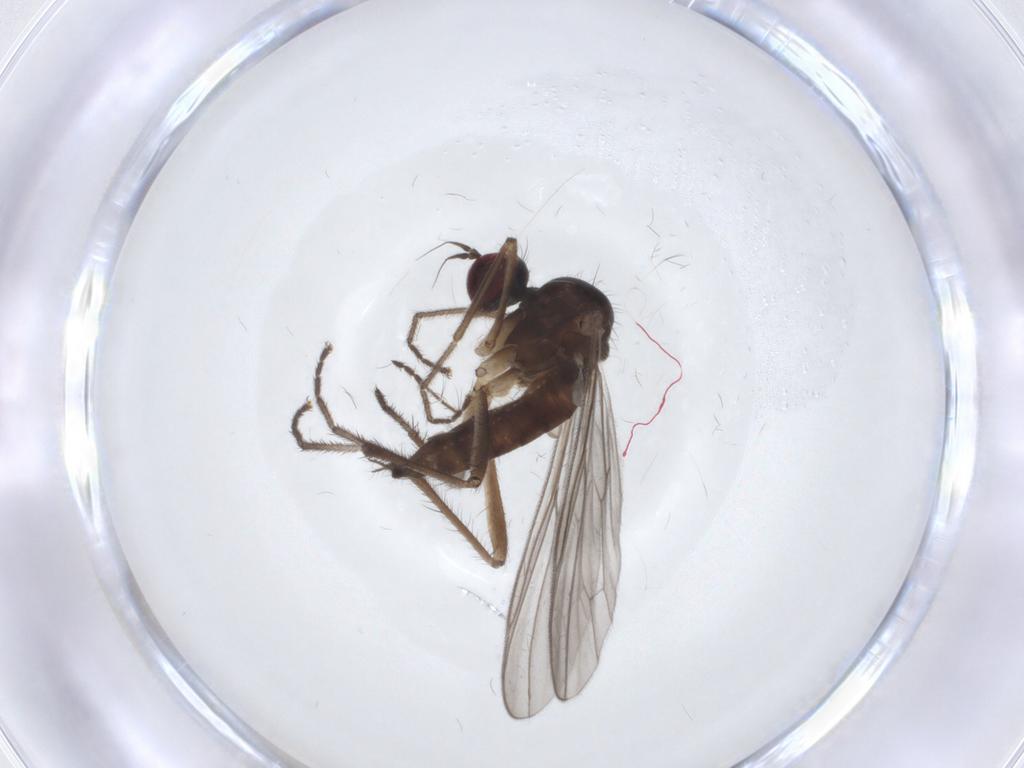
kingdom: Animalia
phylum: Arthropoda
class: Insecta
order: Diptera
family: Hybotidae
